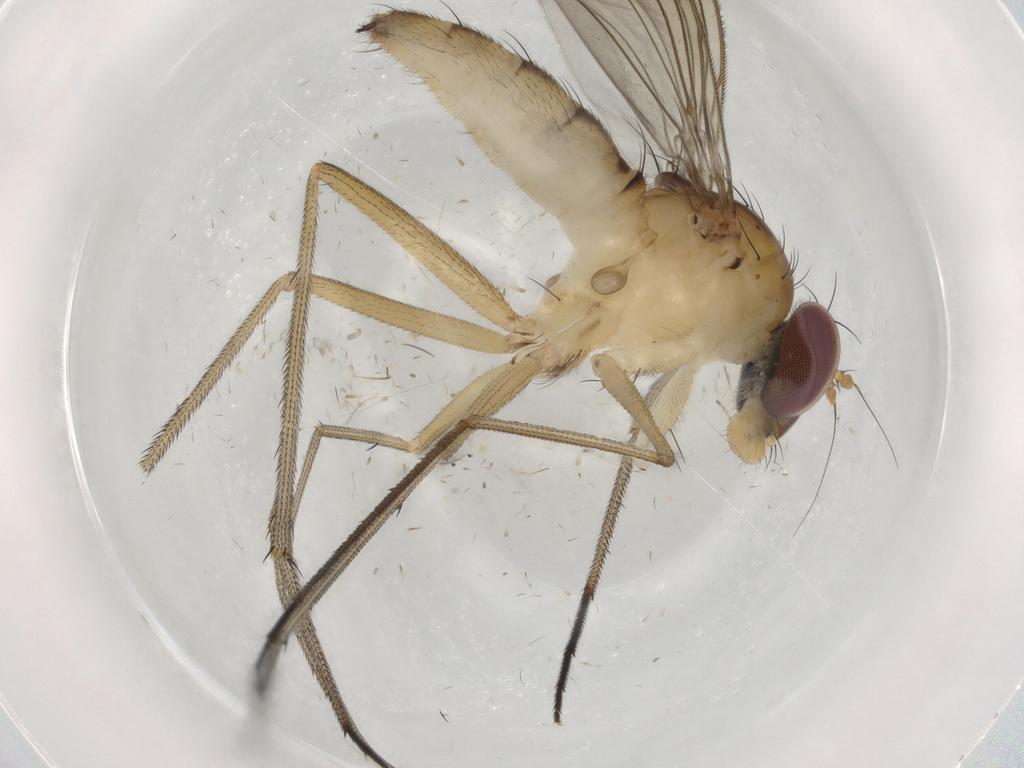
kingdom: Animalia
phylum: Arthropoda
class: Insecta
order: Diptera
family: Dolichopodidae
